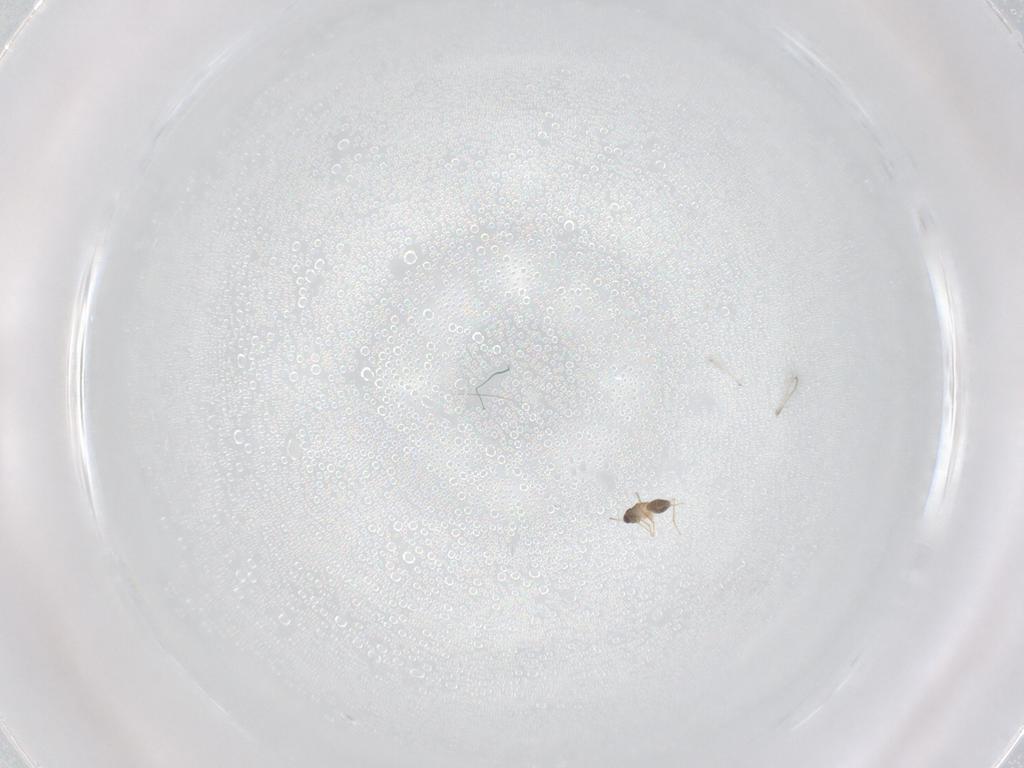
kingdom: Animalia
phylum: Arthropoda
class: Insecta
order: Hymenoptera
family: Mymaridae
